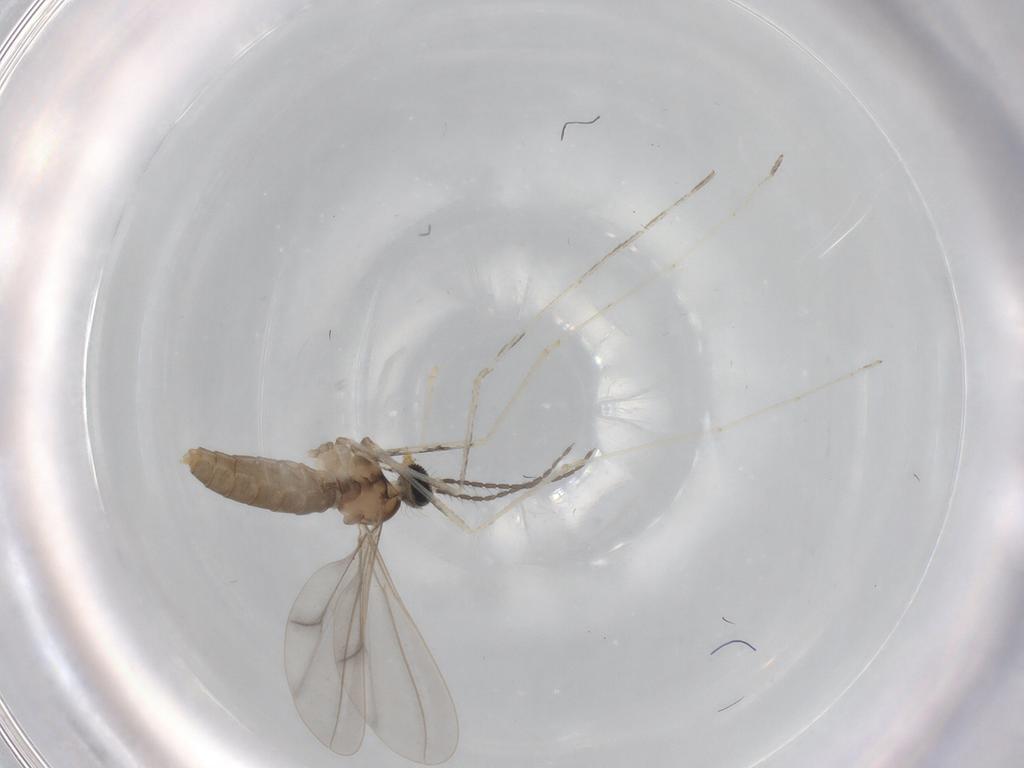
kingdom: Animalia
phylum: Arthropoda
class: Insecta
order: Diptera
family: Cecidomyiidae
